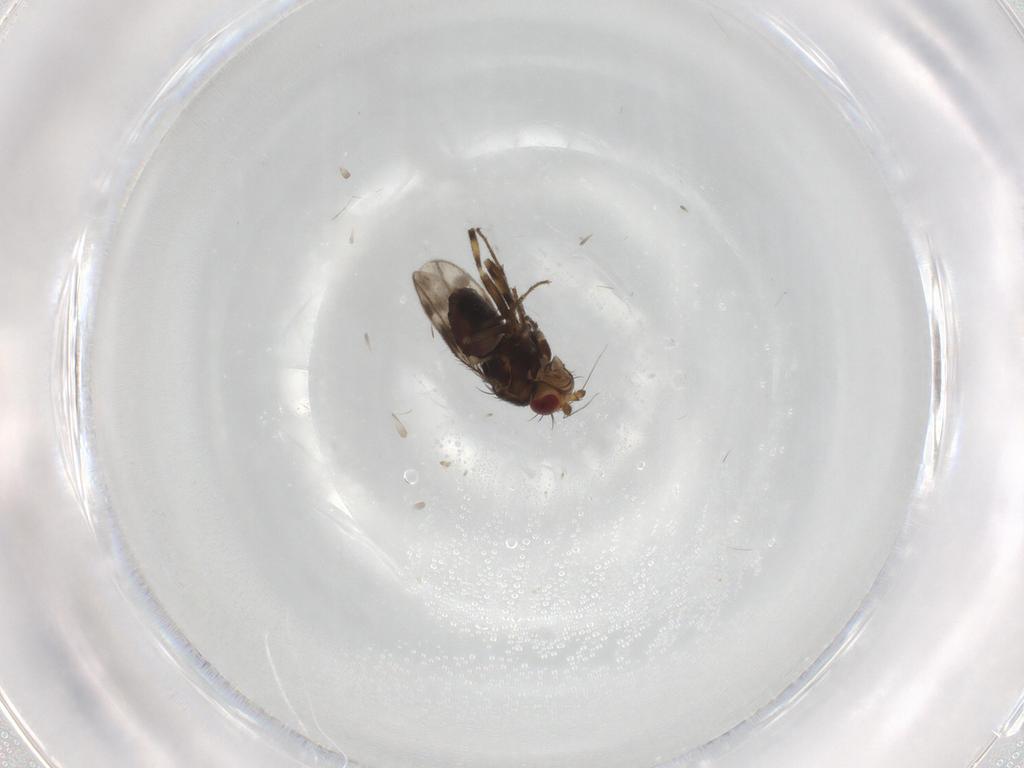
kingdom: Animalia
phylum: Arthropoda
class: Insecta
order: Diptera
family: Sphaeroceridae
